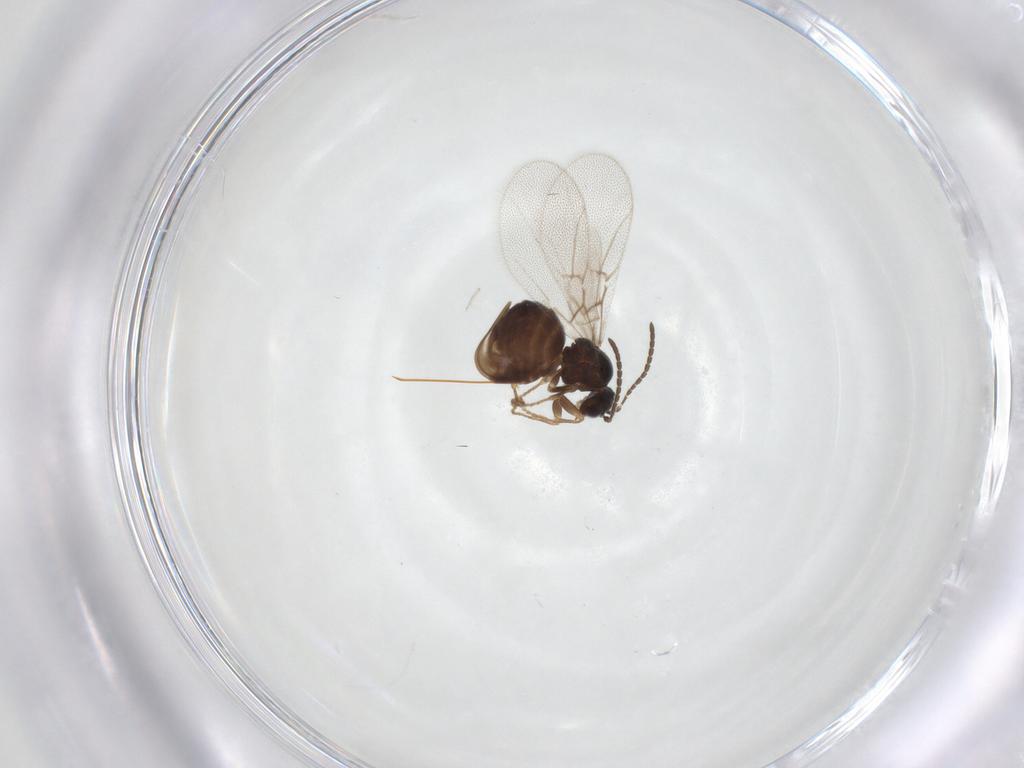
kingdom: Animalia
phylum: Arthropoda
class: Insecta
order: Hymenoptera
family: Cynipidae
